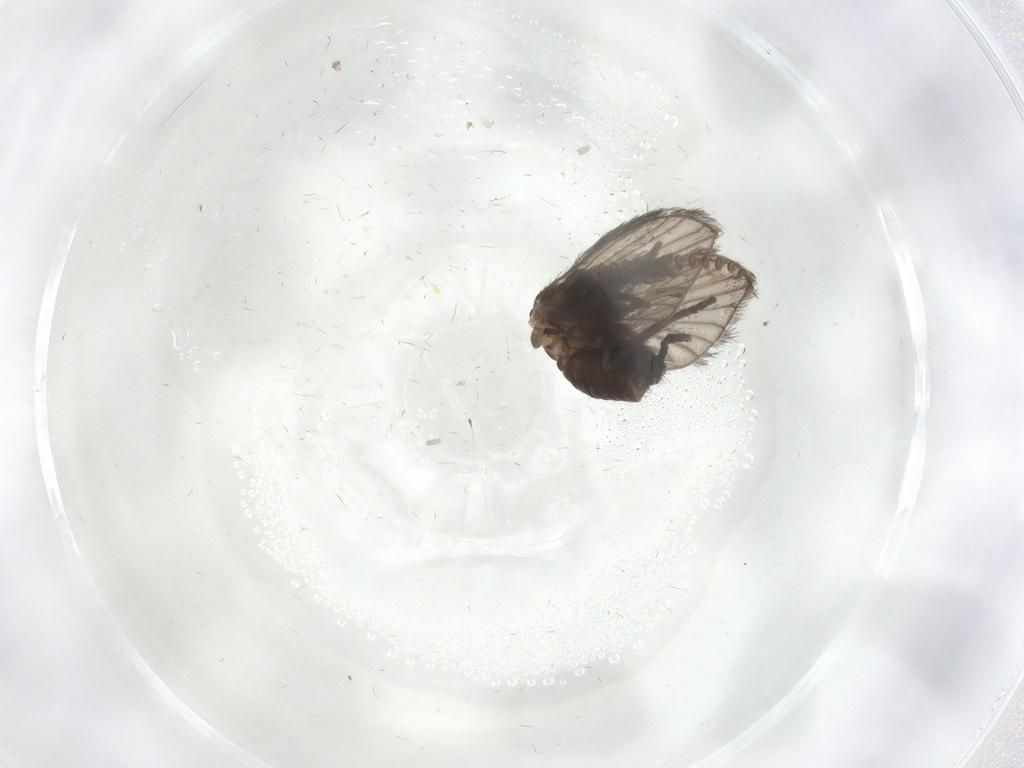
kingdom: Animalia
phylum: Arthropoda
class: Insecta
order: Diptera
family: Psychodidae
